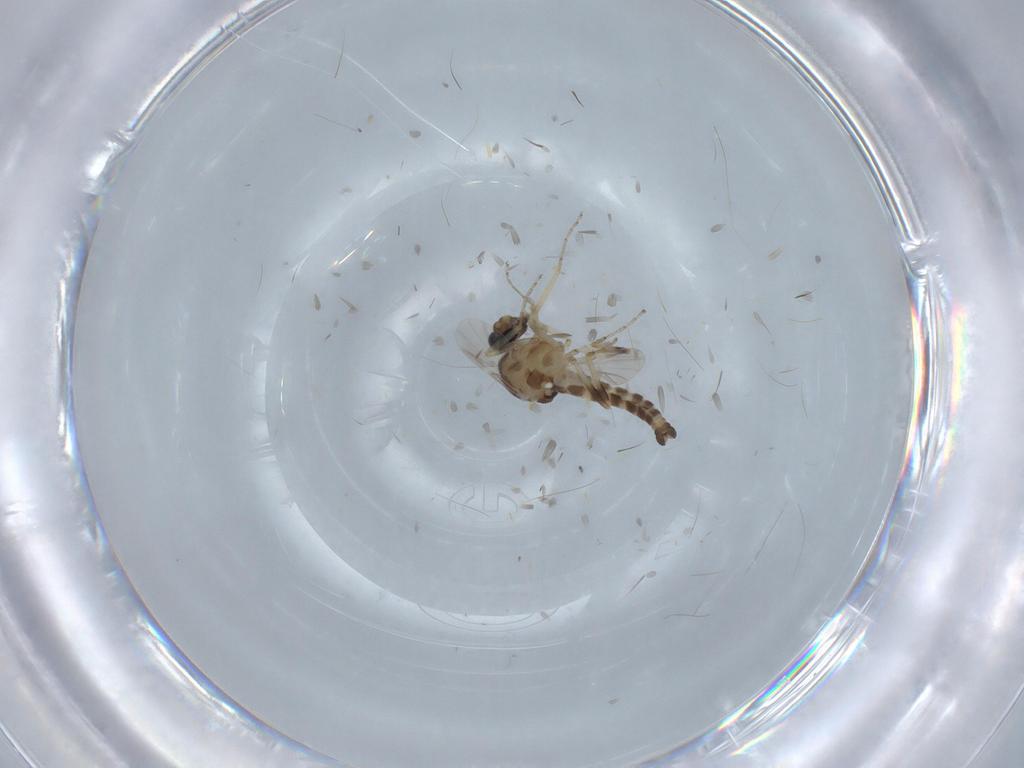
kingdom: Animalia
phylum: Arthropoda
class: Insecta
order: Diptera
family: Ceratopogonidae
